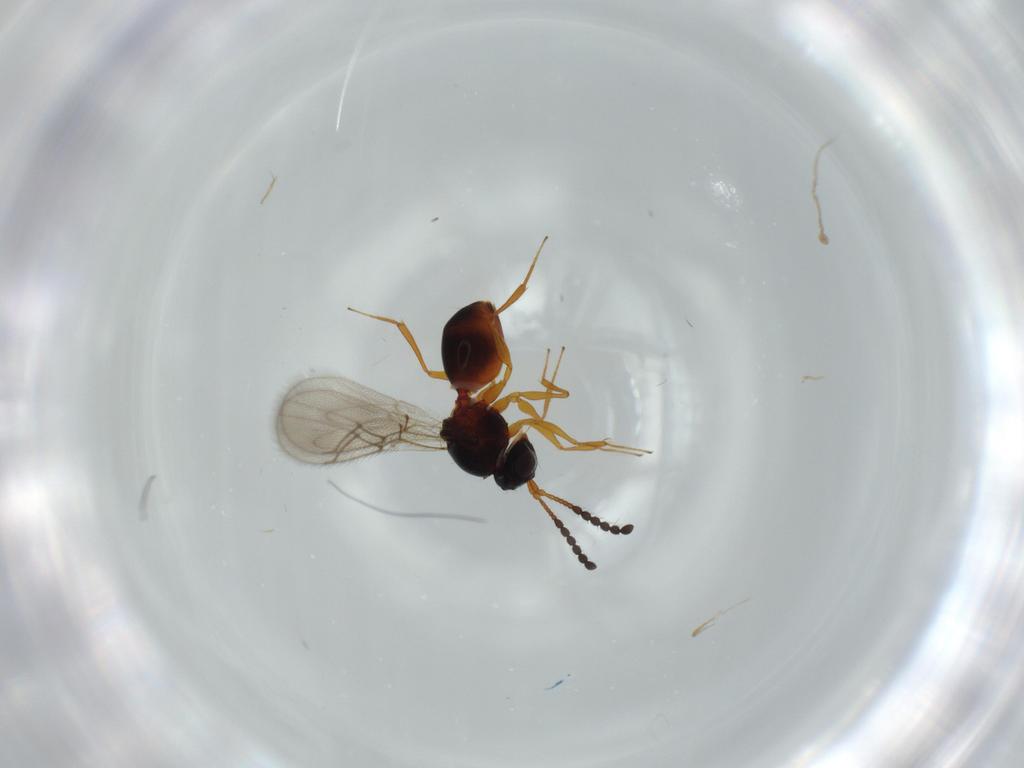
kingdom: Animalia
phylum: Arthropoda
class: Insecta
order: Hymenoptera
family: Figitidae
